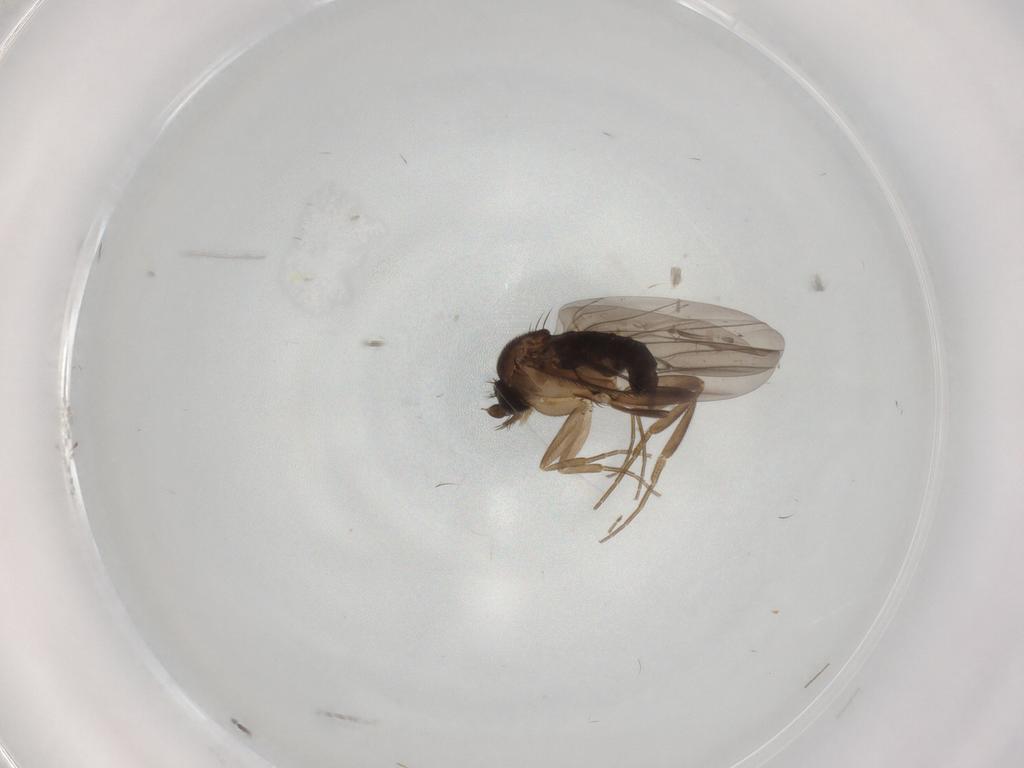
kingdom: Animalia
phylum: Arthropoda
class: Insecta
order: Diptera
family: Phoridae
